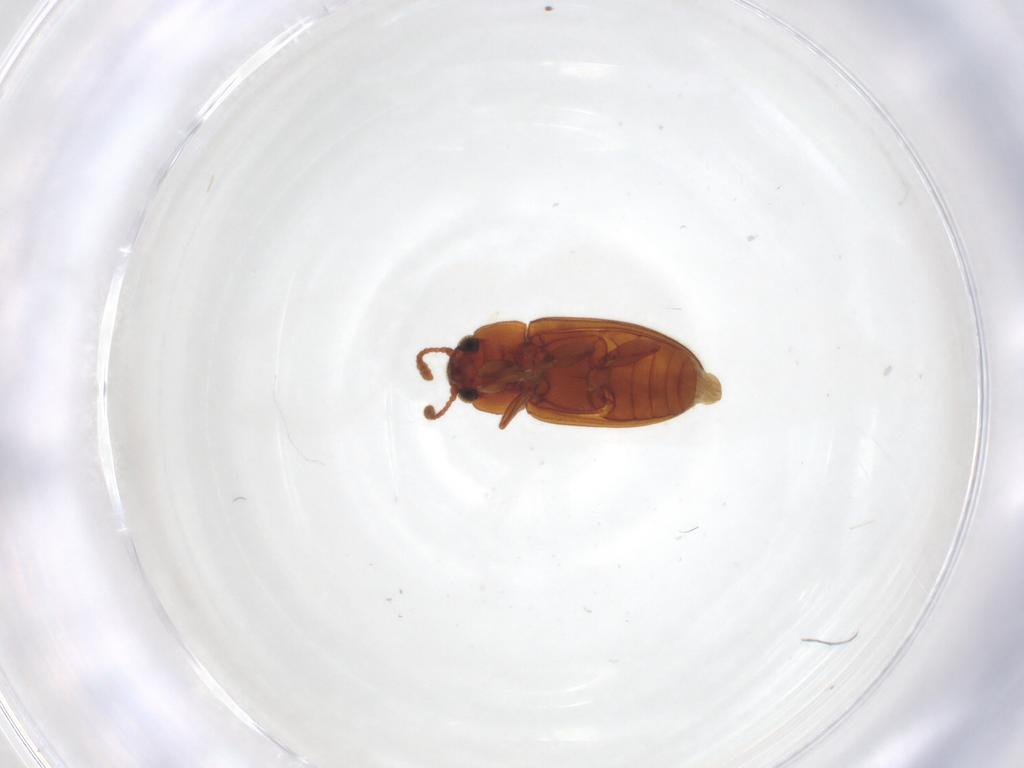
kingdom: Animalia
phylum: Arthropoda
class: Insecta
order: Coleoptera
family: Erotylidae
